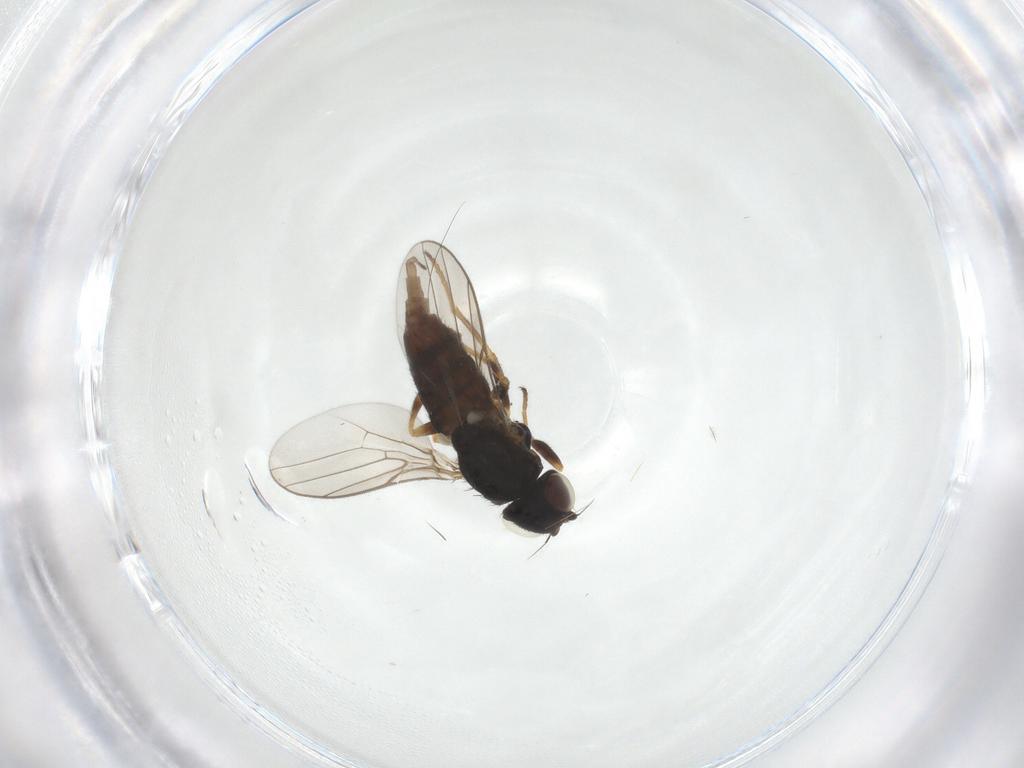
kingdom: Animalia
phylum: Arthropoda
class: Insecta
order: Diptera
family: Chloropidae
